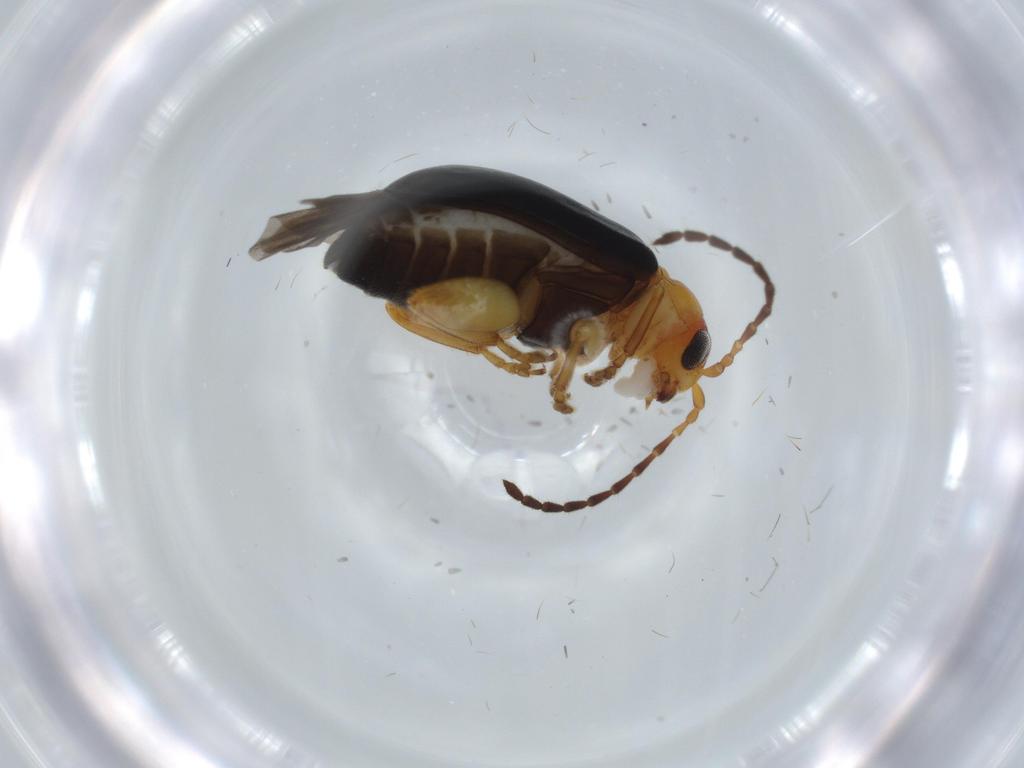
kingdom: Animalia
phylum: Arthropoda
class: Insecta
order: Coleoptera
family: Chrysomelidae
